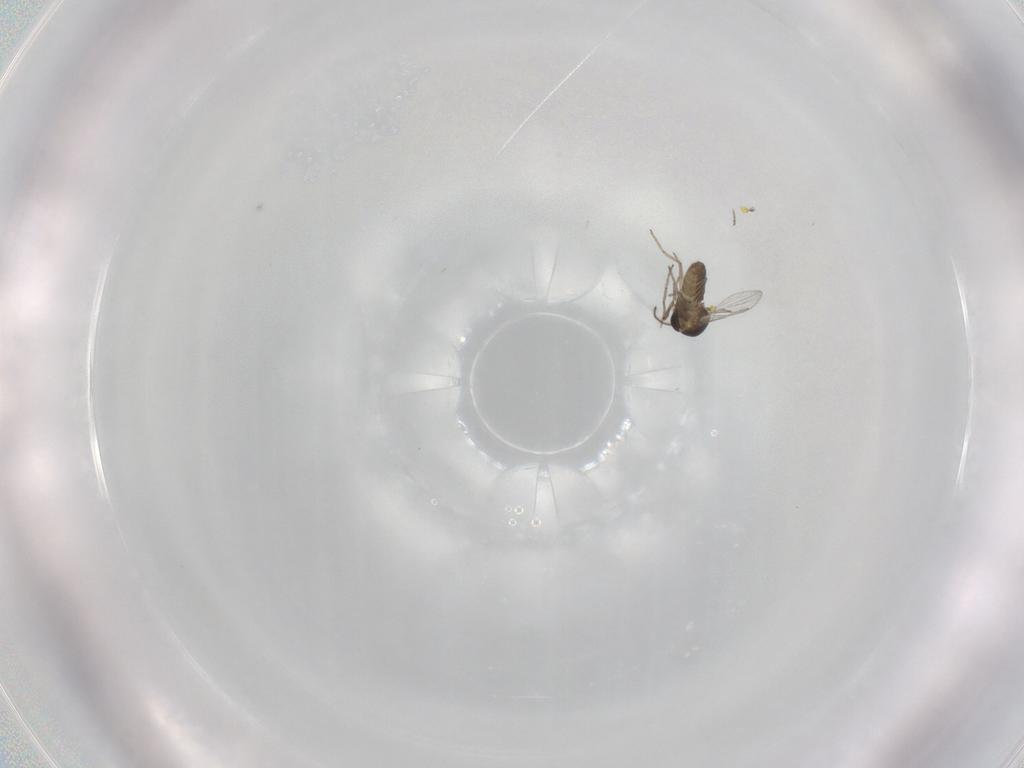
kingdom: Animalia
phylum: Arthropoda
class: Insecta
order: Diptera
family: Ceratopogonidae
